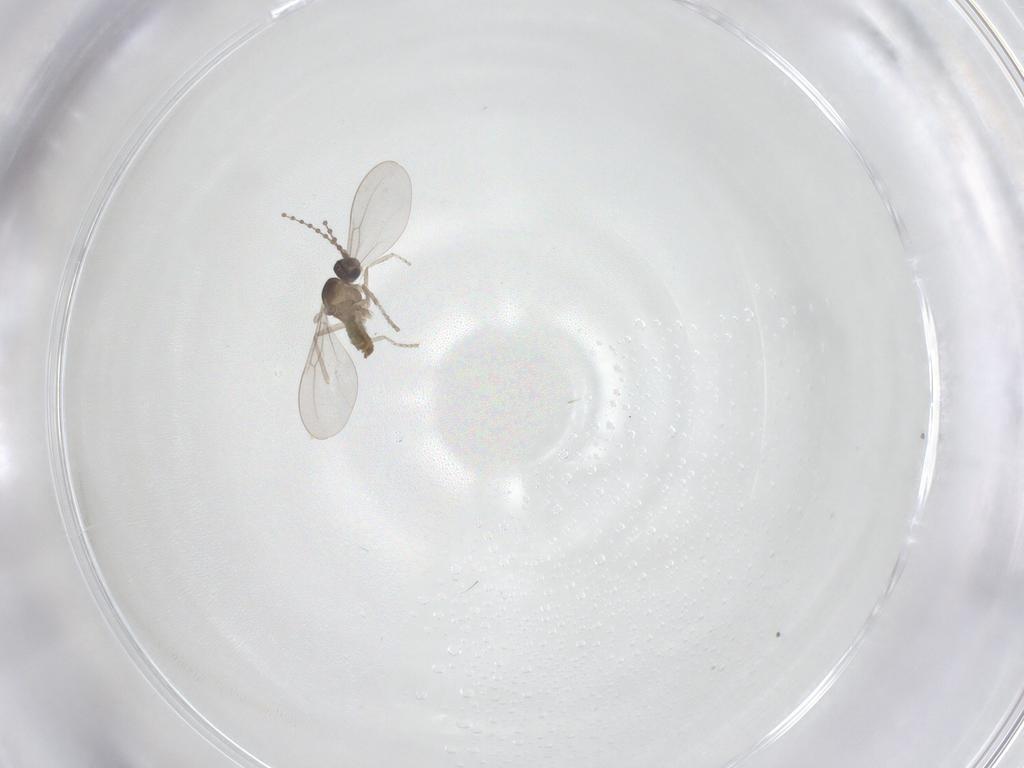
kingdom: Animalia
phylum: Arthropoda
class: Insecta
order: Diptera
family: Cecidomyiidae
